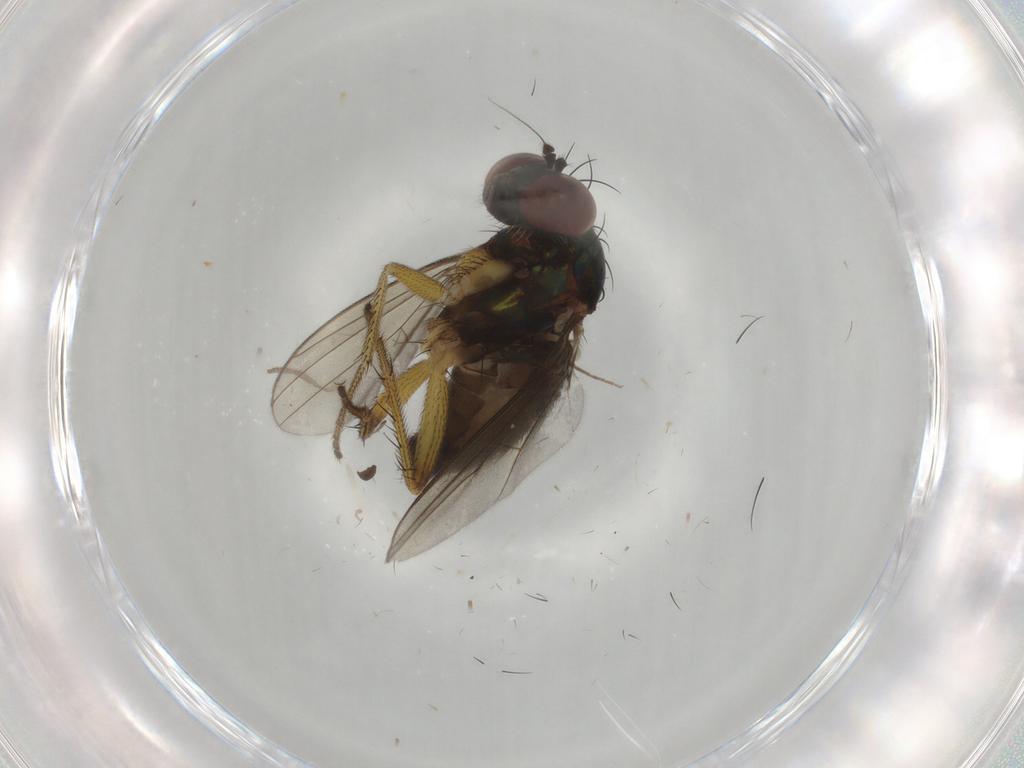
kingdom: Animalia
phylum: Arthropoda
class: Insecta
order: Diptera
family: Dolichopodidae
